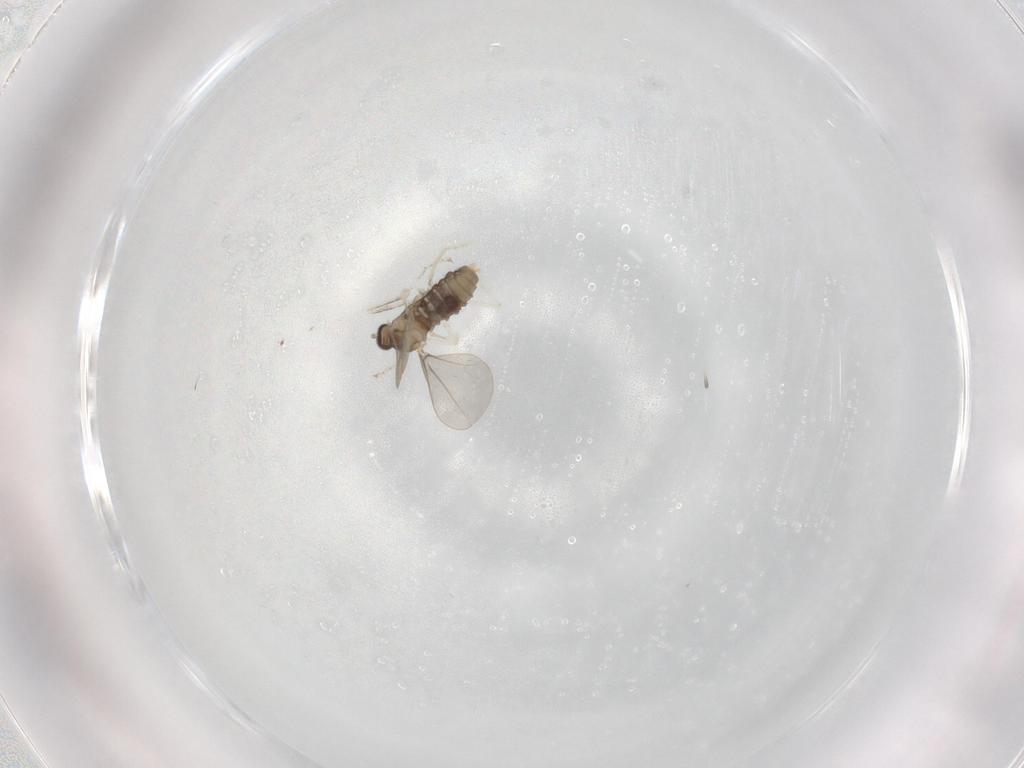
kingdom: Animalia
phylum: Arthropoda
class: Insecta
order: Diptera
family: Cecidomyiidae
